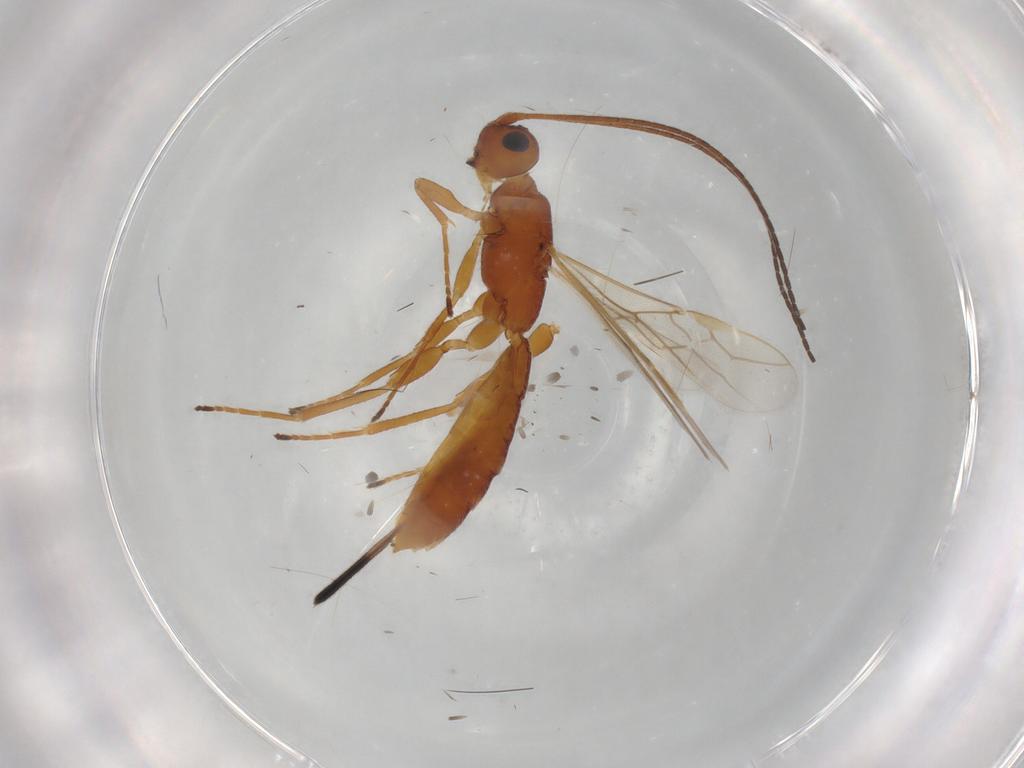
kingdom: Animalia
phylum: Arthropoda
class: Insecta
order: Hymenoptera
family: Braconidae
